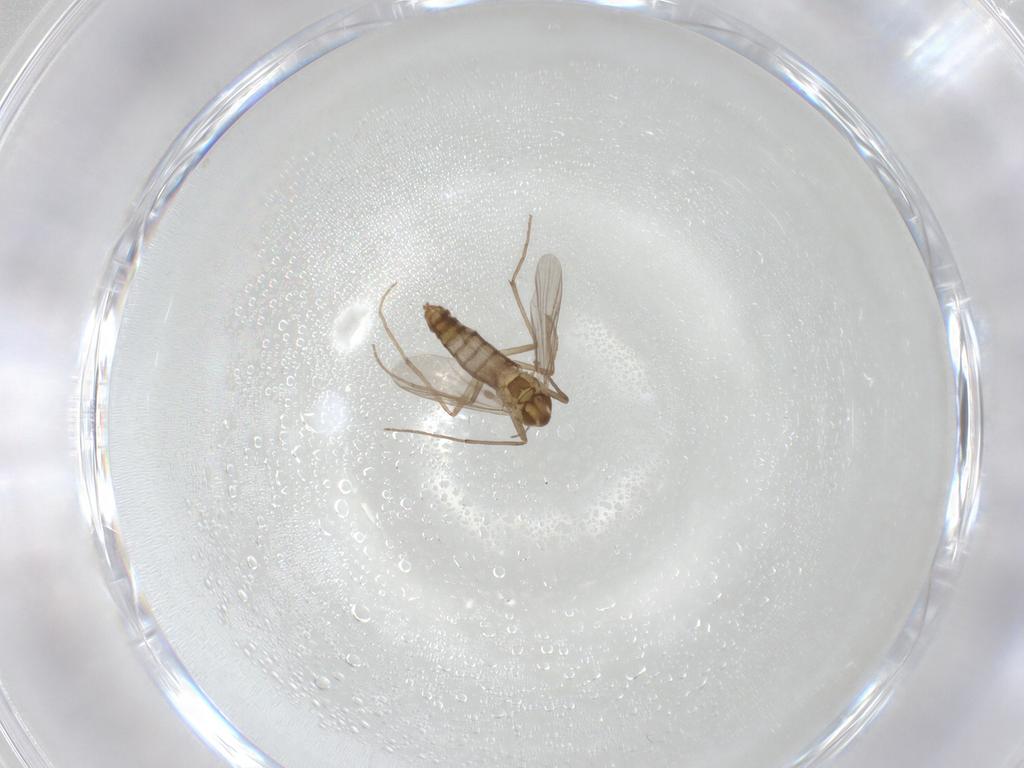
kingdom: Animalia
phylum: Arthropoda
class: Insecta
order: Diptera
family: Chironomidae
